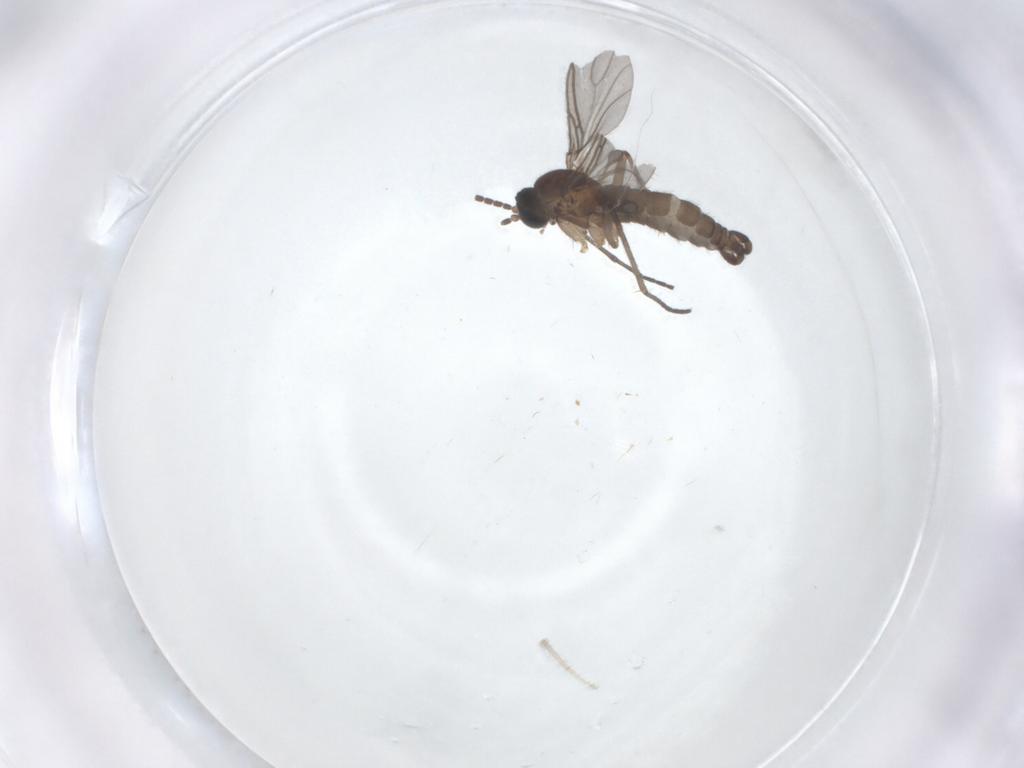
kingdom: Animalia
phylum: Arthropoda
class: Insecta
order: Diptera
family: Sciaridae
